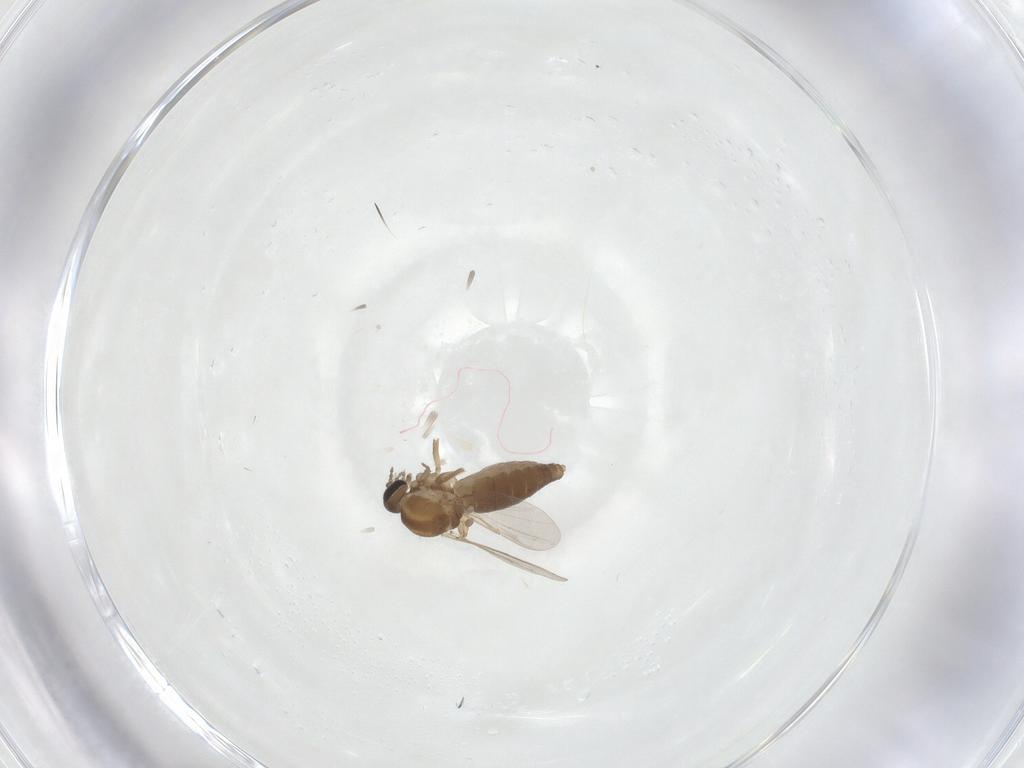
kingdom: Animalia
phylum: Arthropoda
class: Insecta
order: Diptera
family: Ceratopogonidae
